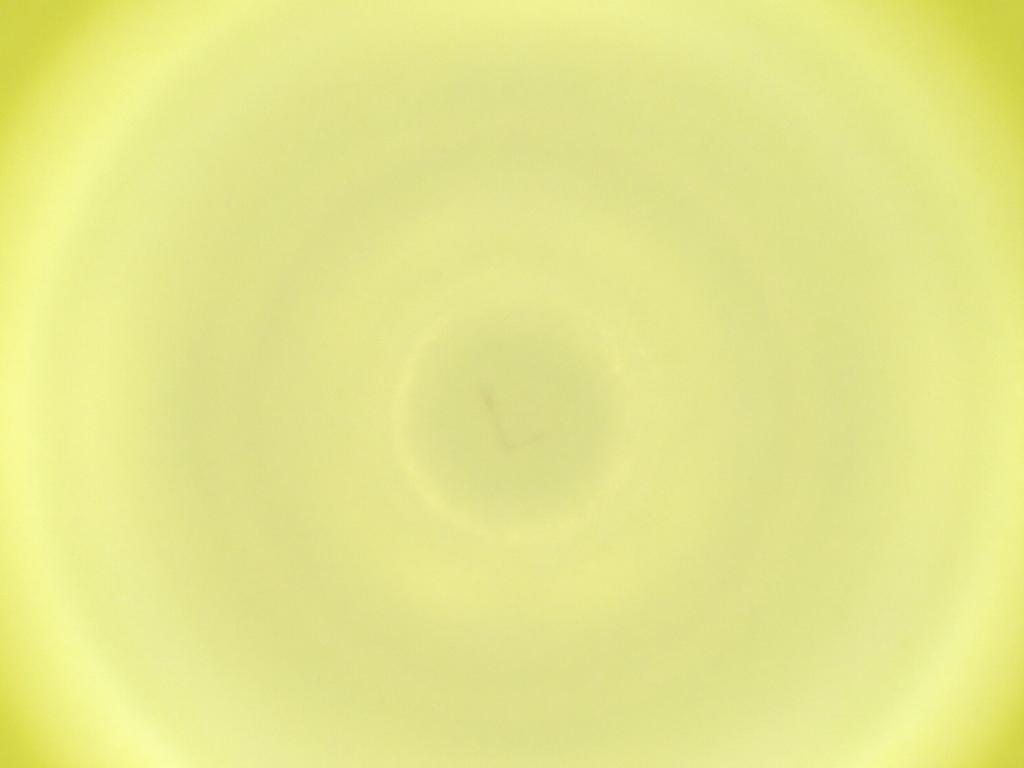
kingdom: Animalia
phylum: Arthropoda
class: Insecta
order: Diptera
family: Cecidomyiidae
